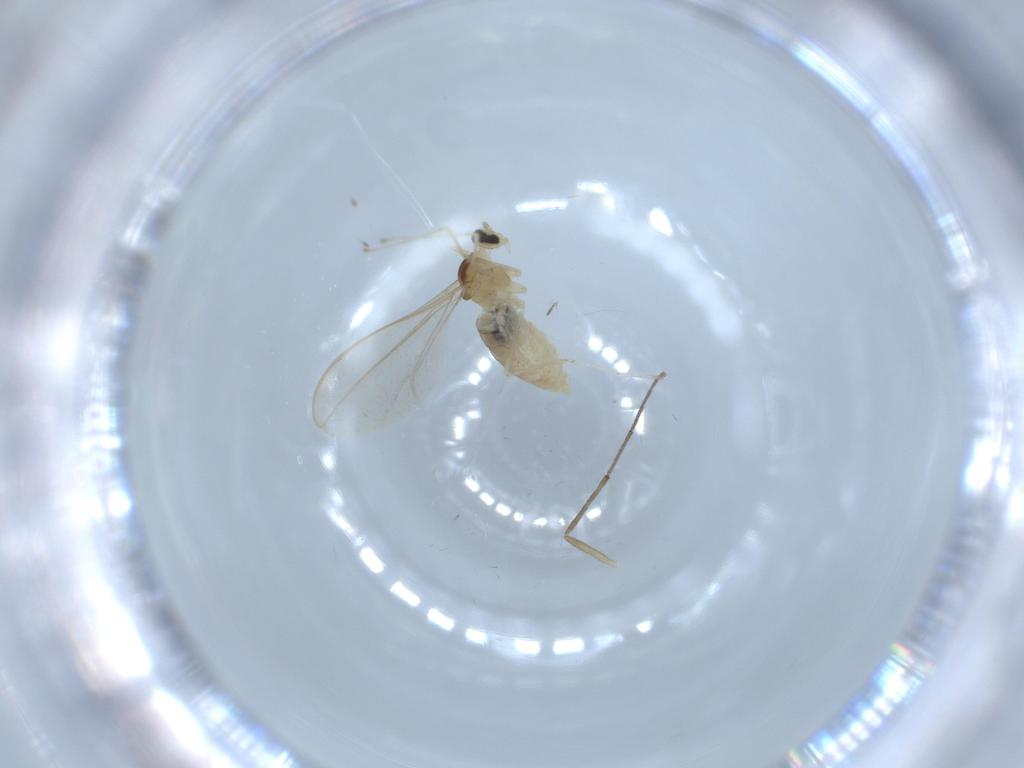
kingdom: Animalia
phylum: Arthropoda
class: Insecta
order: Diptera
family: Cecidomyiidae
